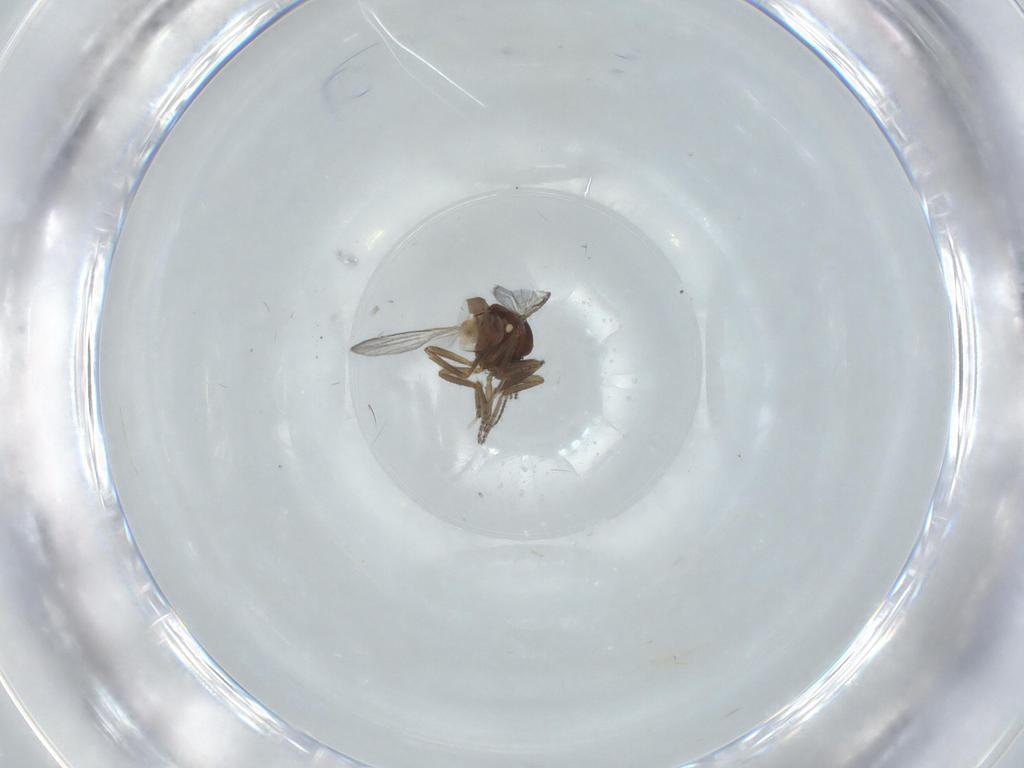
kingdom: Animalia
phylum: Arthropoda
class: Insecta
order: Diptera
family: Ceratopogonidae
